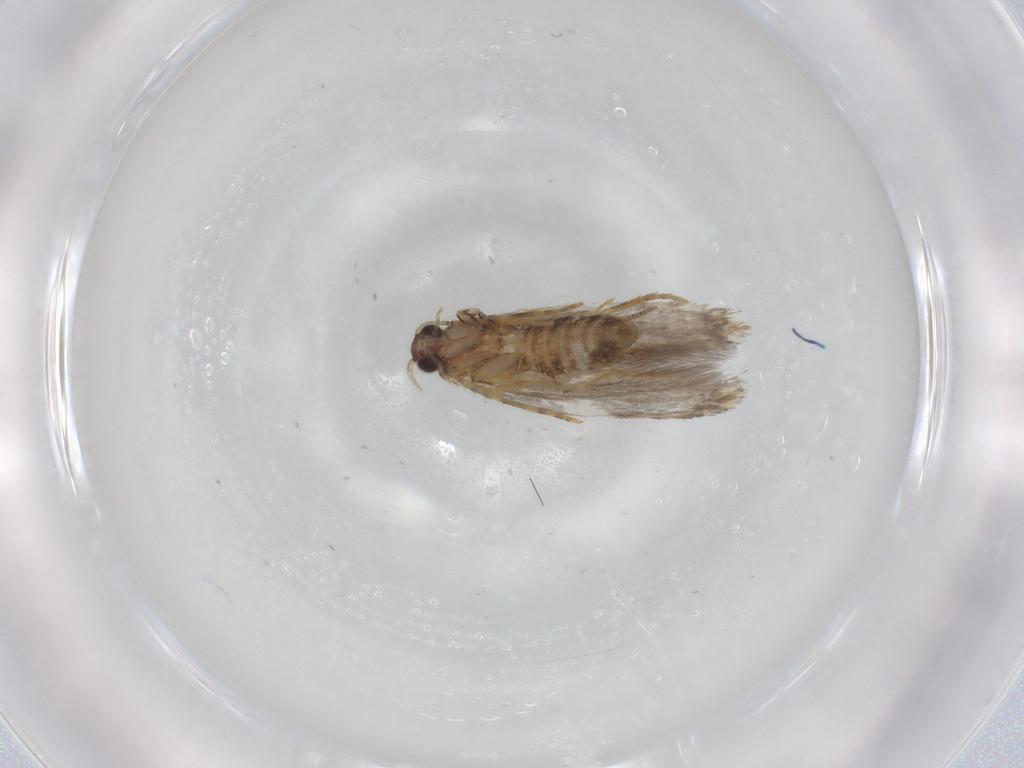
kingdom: Animalia
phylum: Arthropoda
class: Insecta
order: Lepidoptera
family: Tineidae
